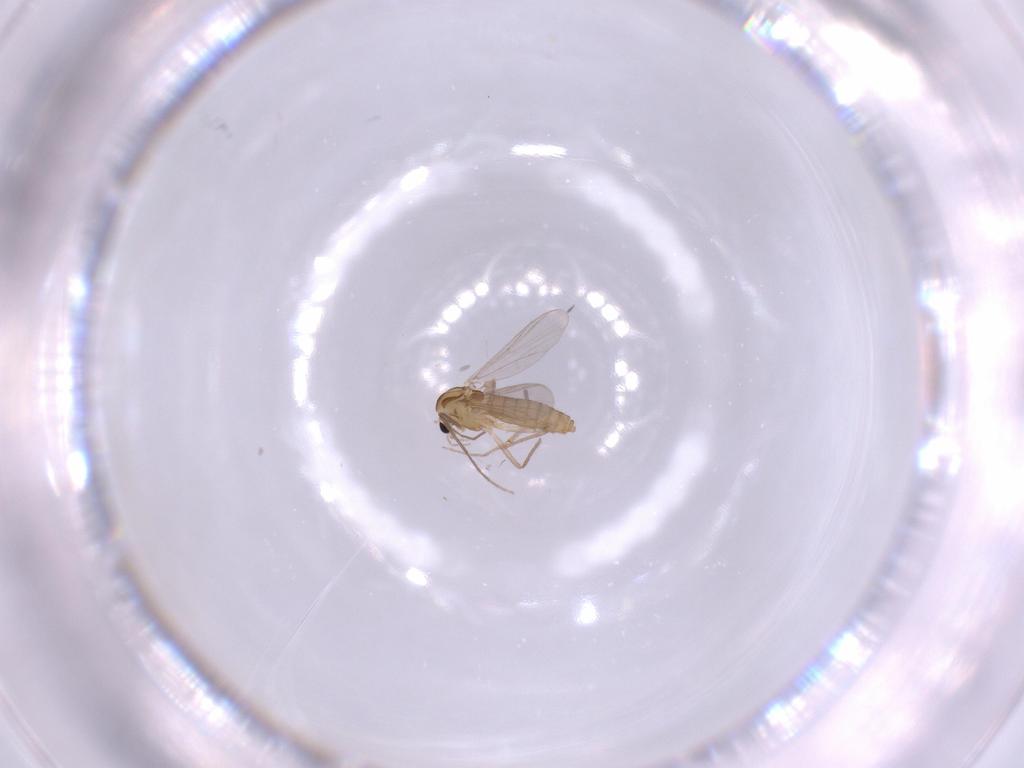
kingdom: Animalia
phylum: Arthropoda
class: Insecta
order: Diptera
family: Chironomidae
